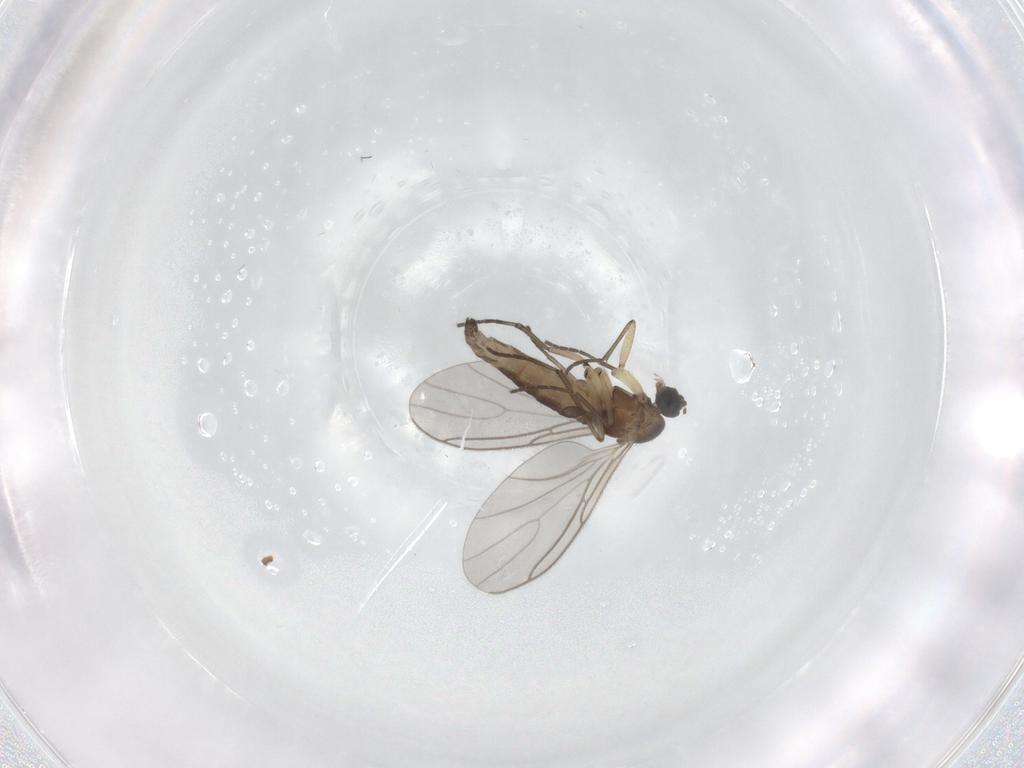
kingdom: Animalia
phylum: Arthropoda
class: Insecta
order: Diptera
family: Sciaridae
